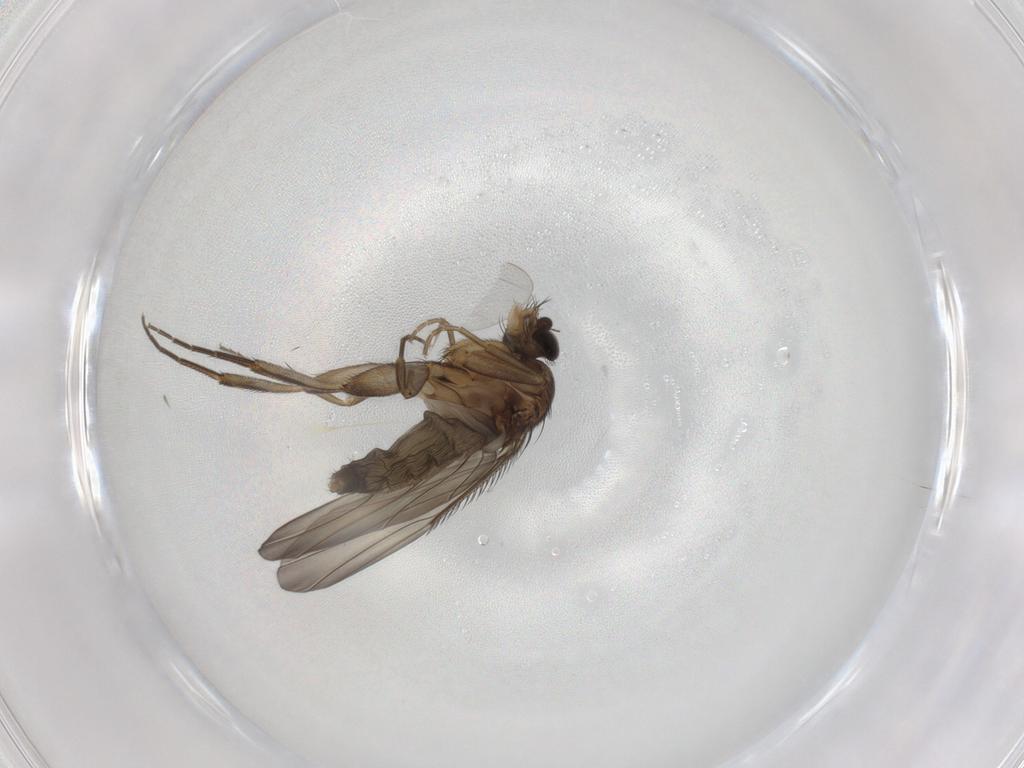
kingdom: Animalia
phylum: Arthropoda
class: Insecta
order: Diptera
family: Phoridae
